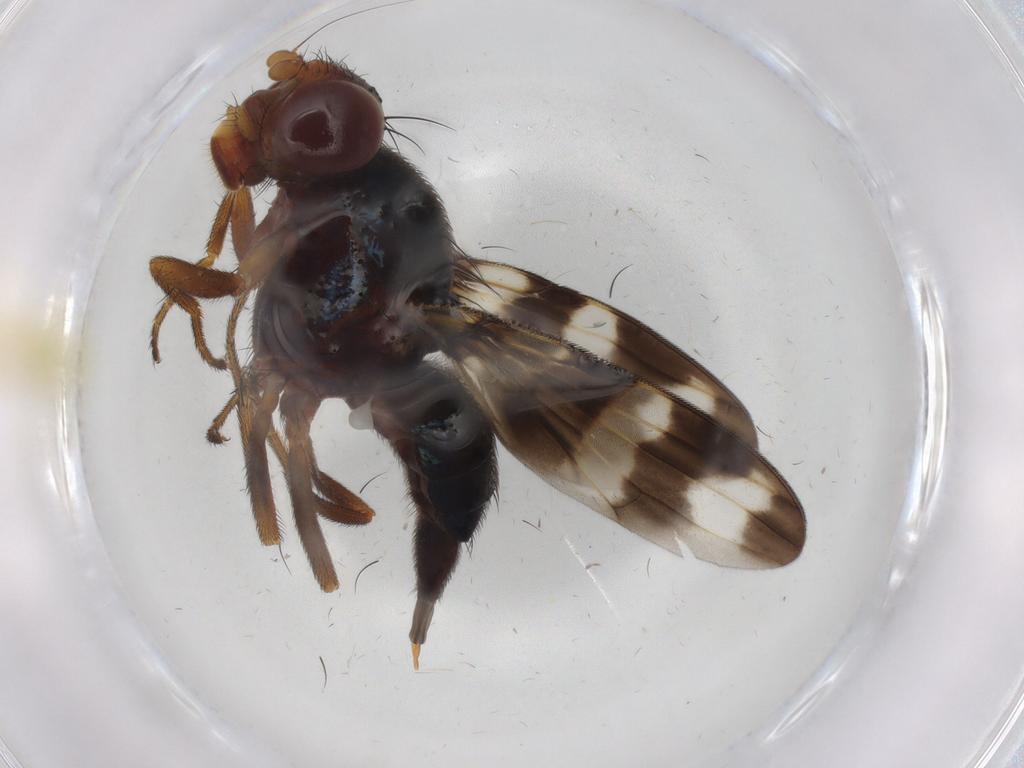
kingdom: Animalia
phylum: Arthropoda
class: Insecta
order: Diptera
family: Ulidiidae
